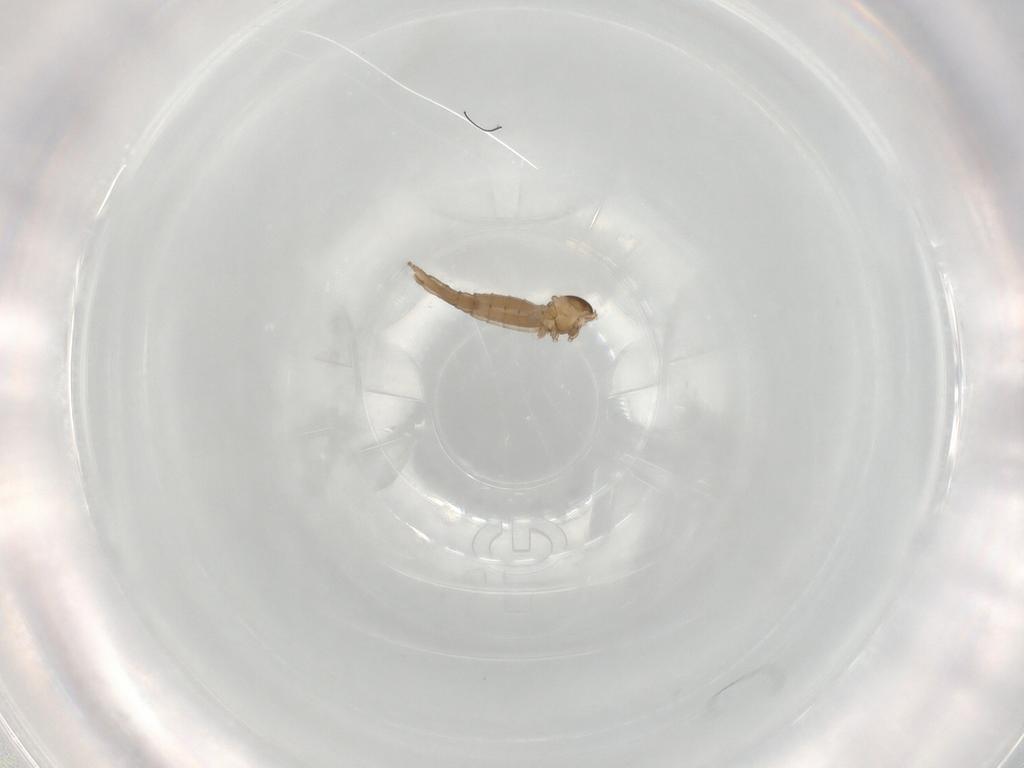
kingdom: Animalia
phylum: Arthropoda
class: Insecta
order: Diptera
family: Cecidomyiidae
